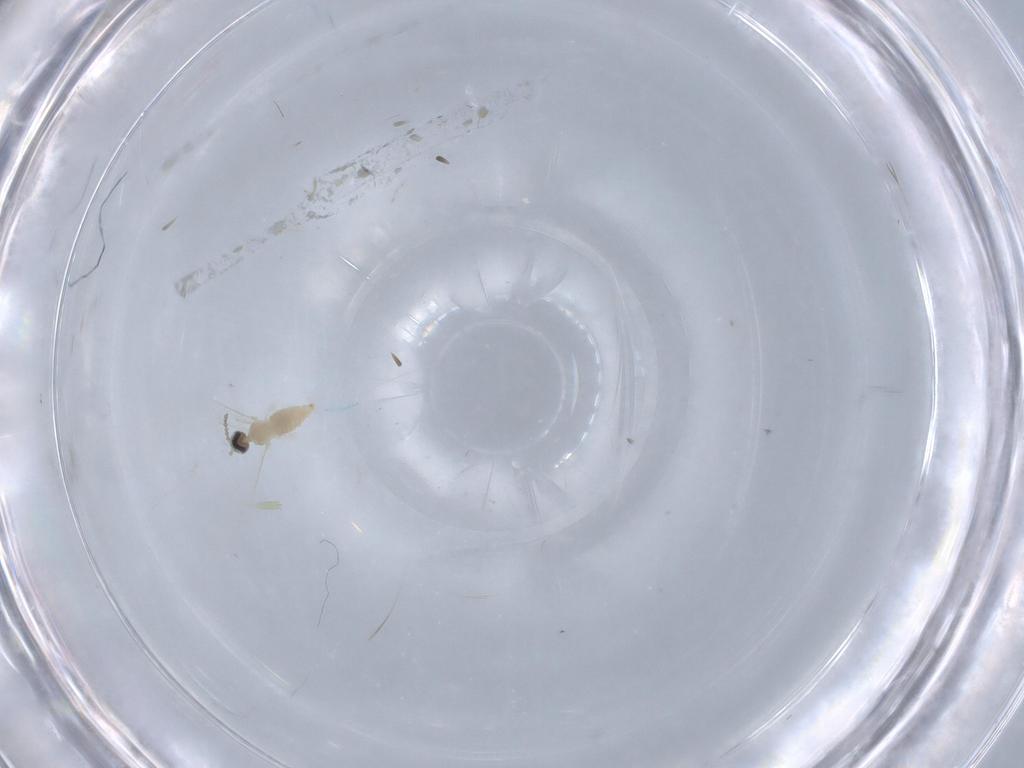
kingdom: Animalia
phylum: Arthropoda
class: Insecta
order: Diptera
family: Cecidomyiidae
